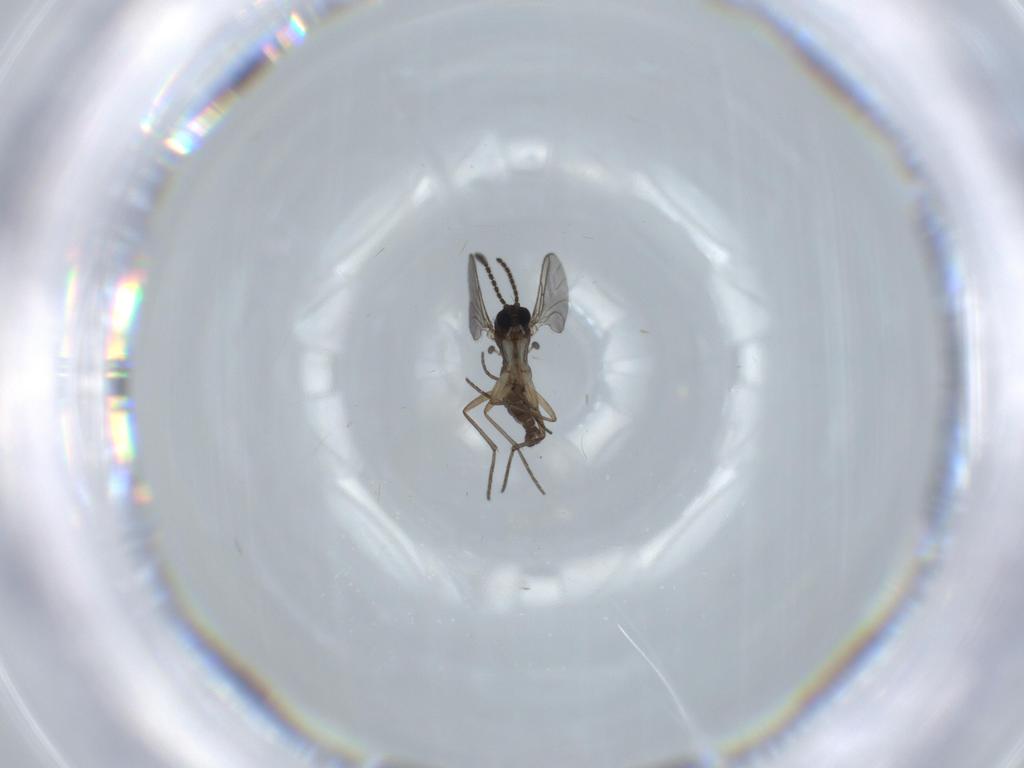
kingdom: Animalia
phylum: Arthropoda
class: Insecta
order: Diptera
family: Sciaridae
